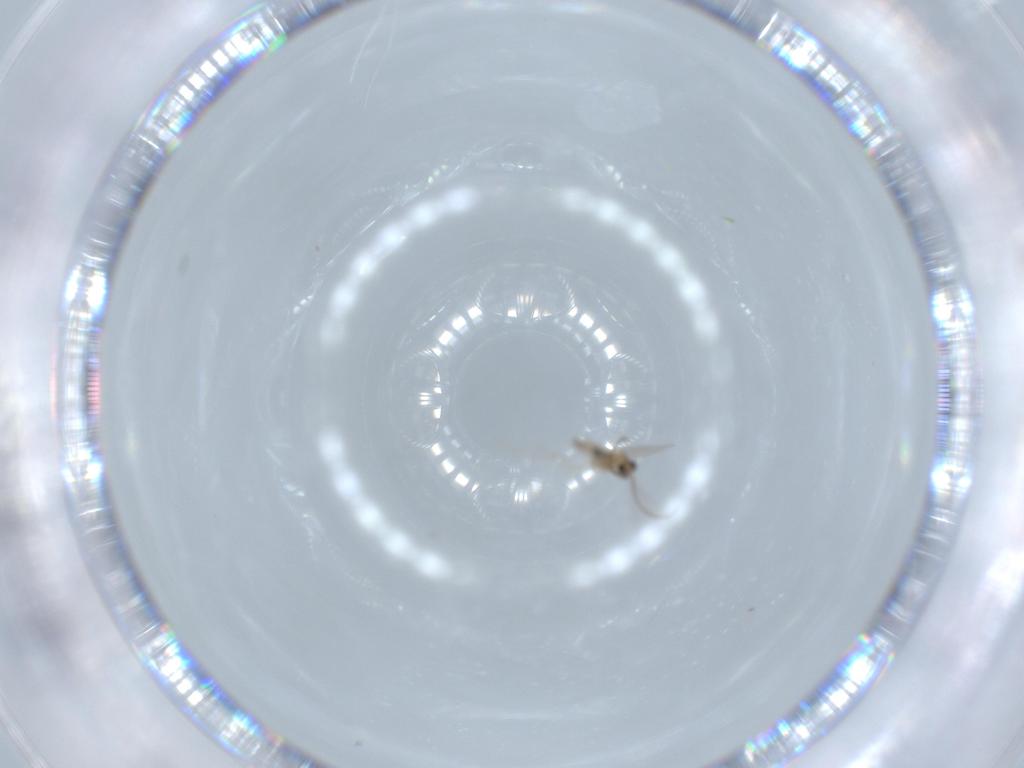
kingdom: Animalia
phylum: Arthropoda
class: Insecta
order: Diptera
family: Cecidomyiidae
